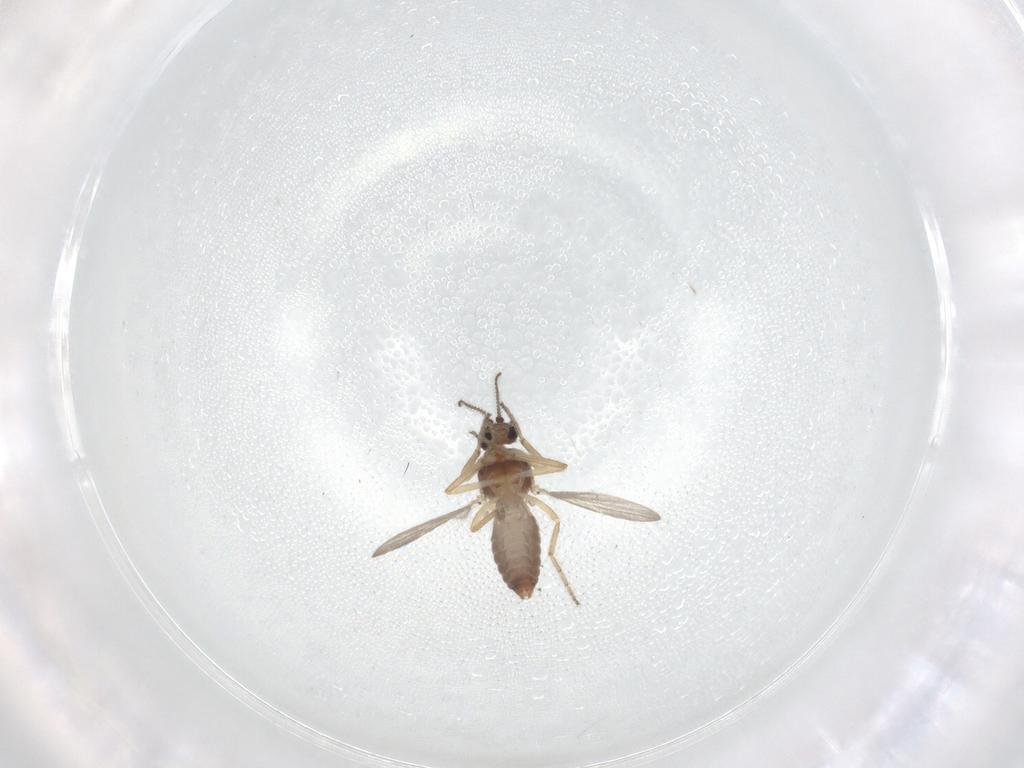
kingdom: Animalia
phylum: Arthropoda
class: Insecta
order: Diptera
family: Ceratopogonidae
